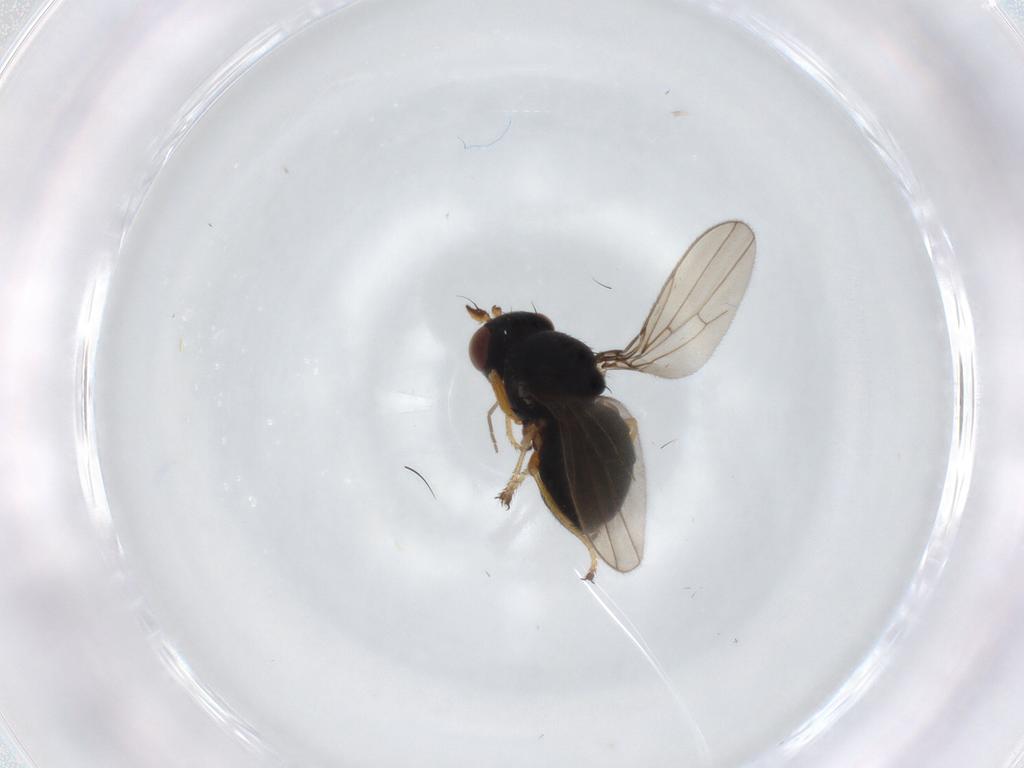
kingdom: Animalia
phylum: Arthropoda
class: Insecta
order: Diptera
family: Ephydridae
